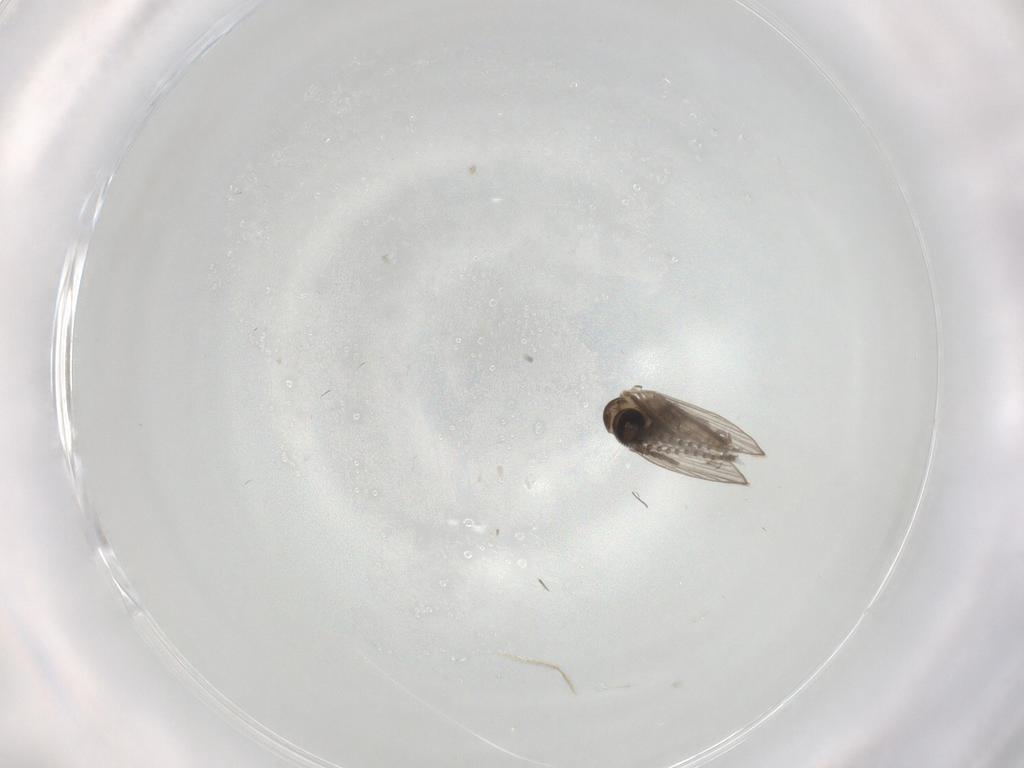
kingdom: Animalia
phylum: Arthropoda
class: Insecta
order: Diptera
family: Psychodidae
